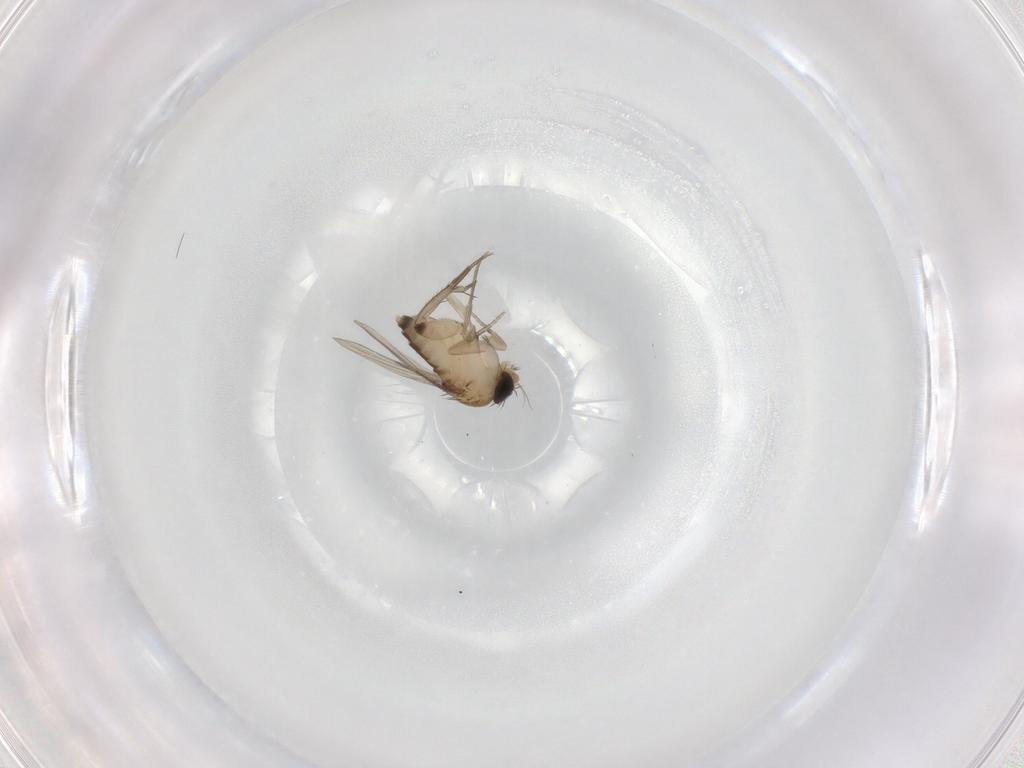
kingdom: Animalia
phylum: Arthropoda
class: Insecta
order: Diptera
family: Phoridae
